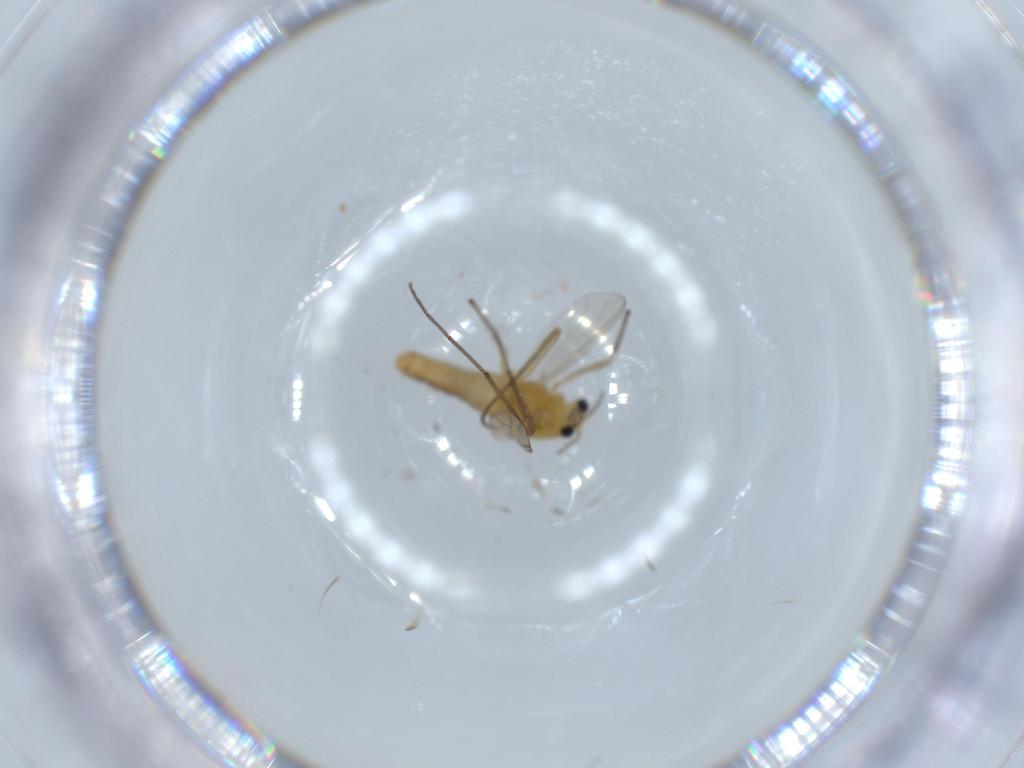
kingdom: Animalia
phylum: Arthropoda
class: Insecta
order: Diptera
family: Chironomidae
